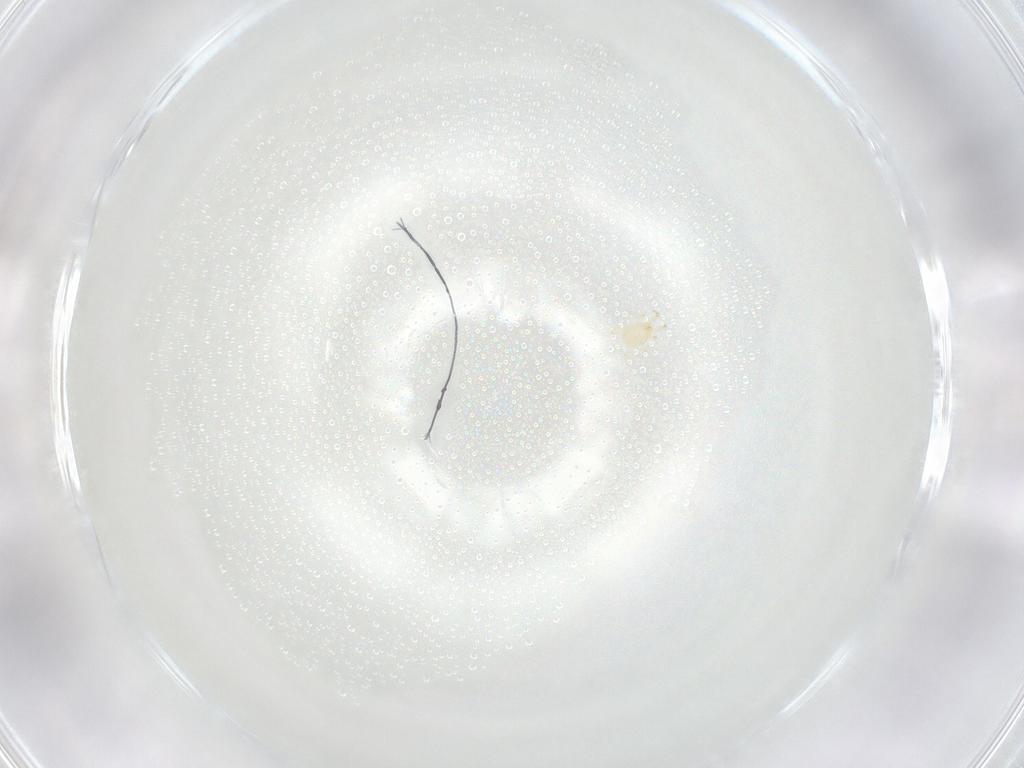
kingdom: Animalia
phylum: Arthropoda
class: Arachnida
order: Mesostigmata
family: Phytoseiidae
